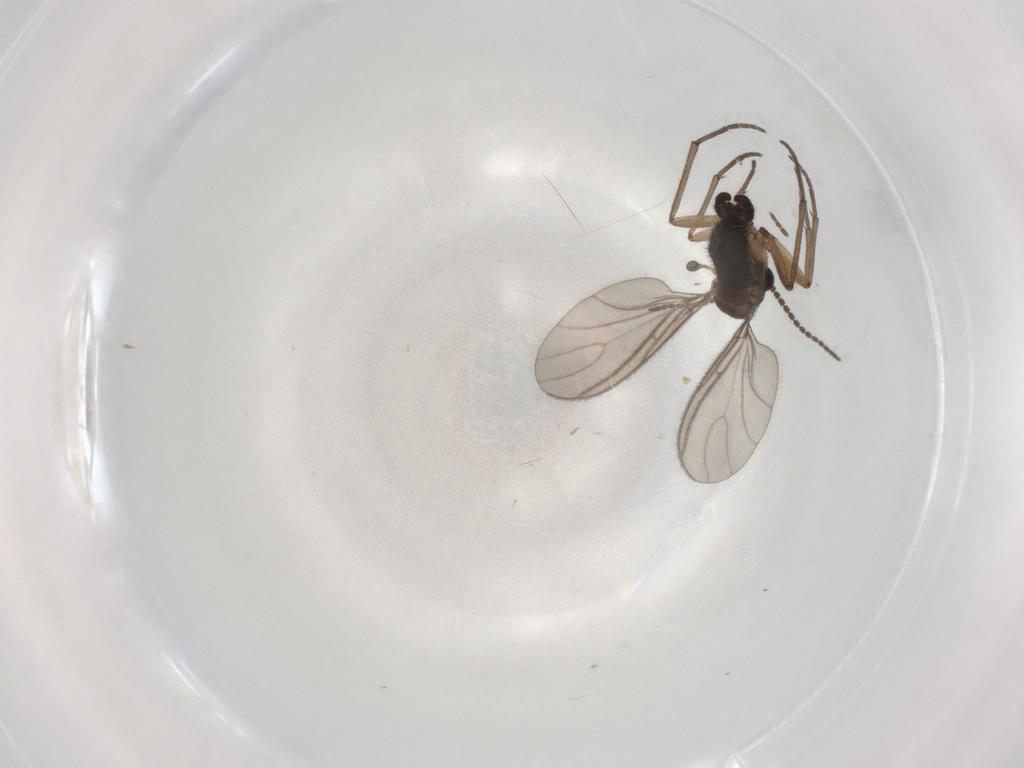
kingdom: Animalia
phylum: Arthropoda
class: Insecta
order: Diptera
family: Sciaridae
